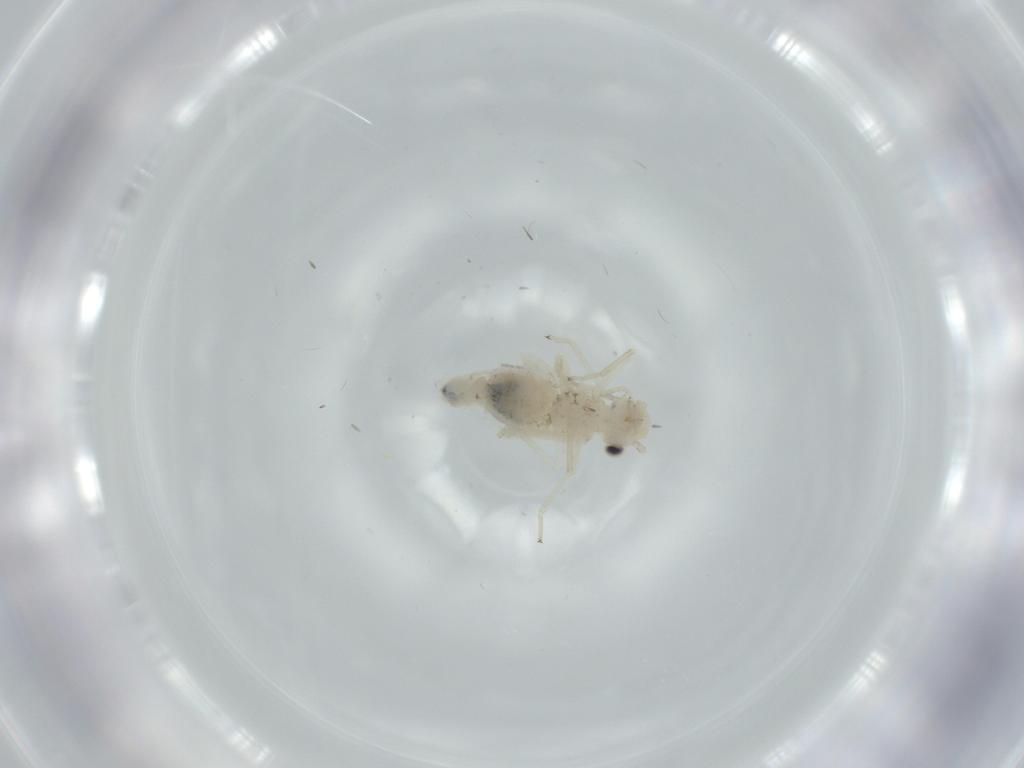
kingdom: Animalia
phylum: Arthropoda
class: Insecta
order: Psocodea
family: Caeciliusidae
